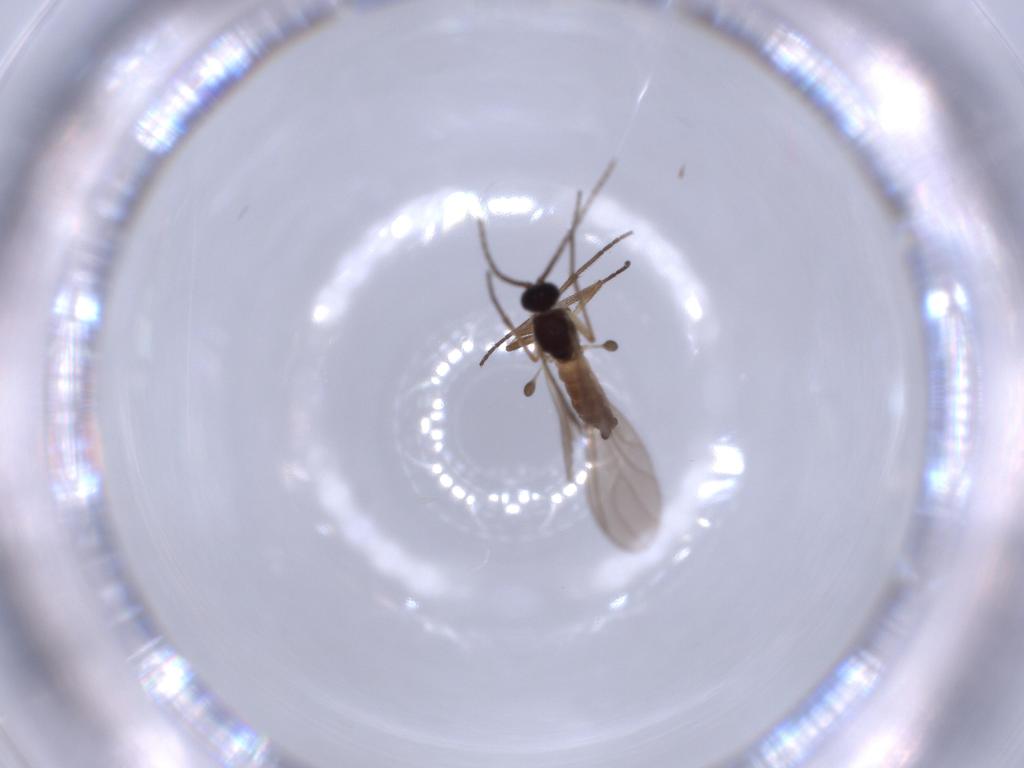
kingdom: Animalia
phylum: Arthropoda
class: Insecta
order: Diptera
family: Sciaridae
